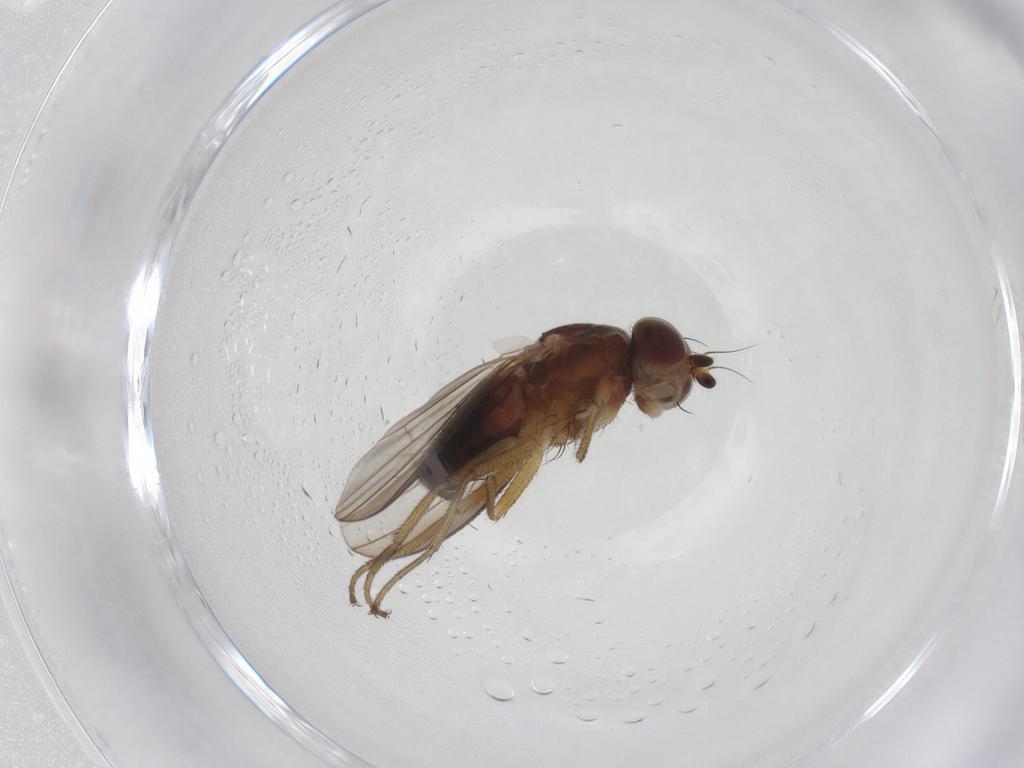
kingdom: Animalia
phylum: Arthropoda
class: Insecta
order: Diptera
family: Heleomyzidae
